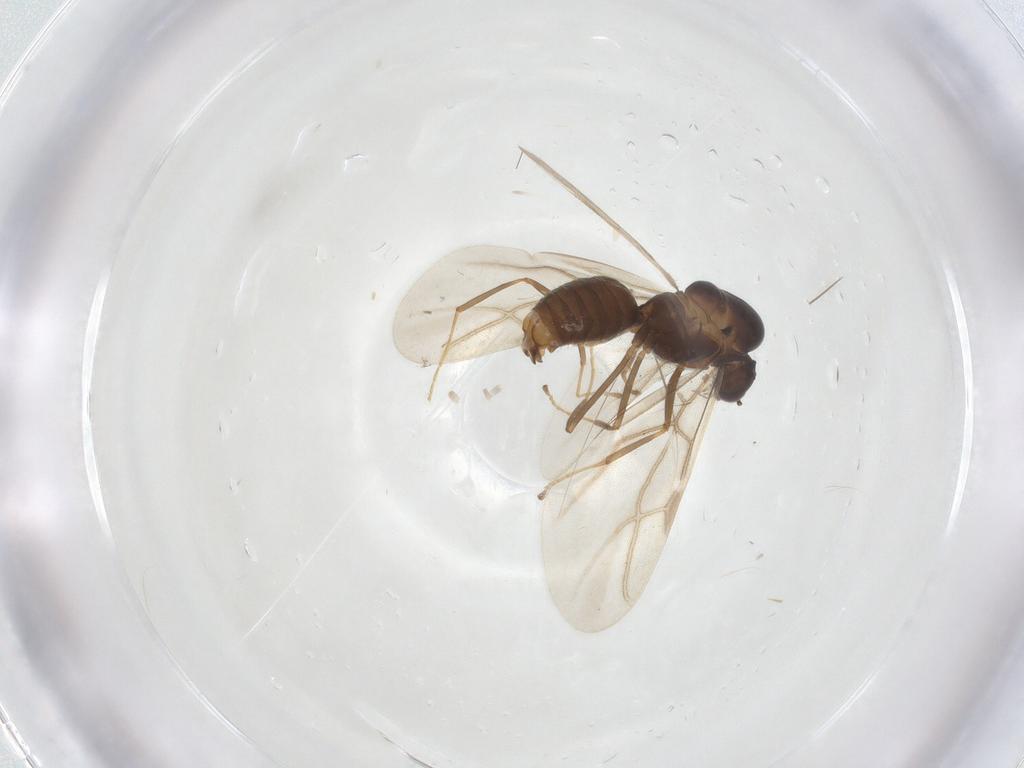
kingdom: Animalia
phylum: Arthropoda
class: Insecta
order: Hymenoptera
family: Formicidae
